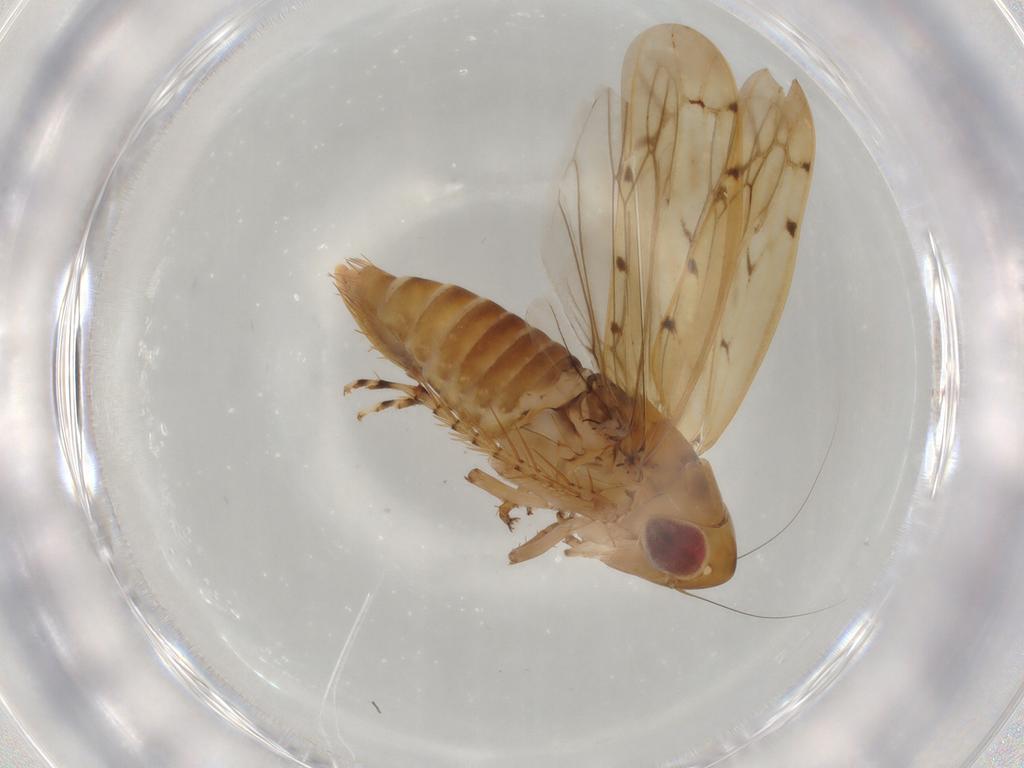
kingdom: Animalia
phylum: Arthropoda
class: Insecta
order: Hemiptera
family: Cicadellidae
